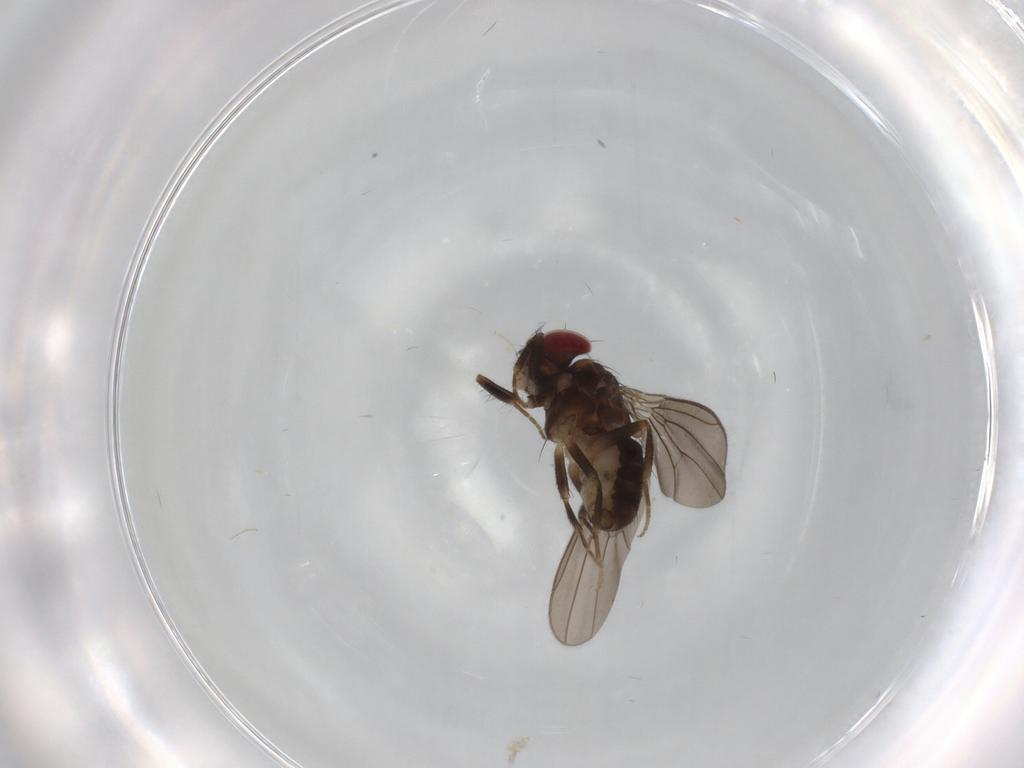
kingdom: Animalia
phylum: Arthropoda
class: Insecta
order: Diptera
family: Drosophilidae
